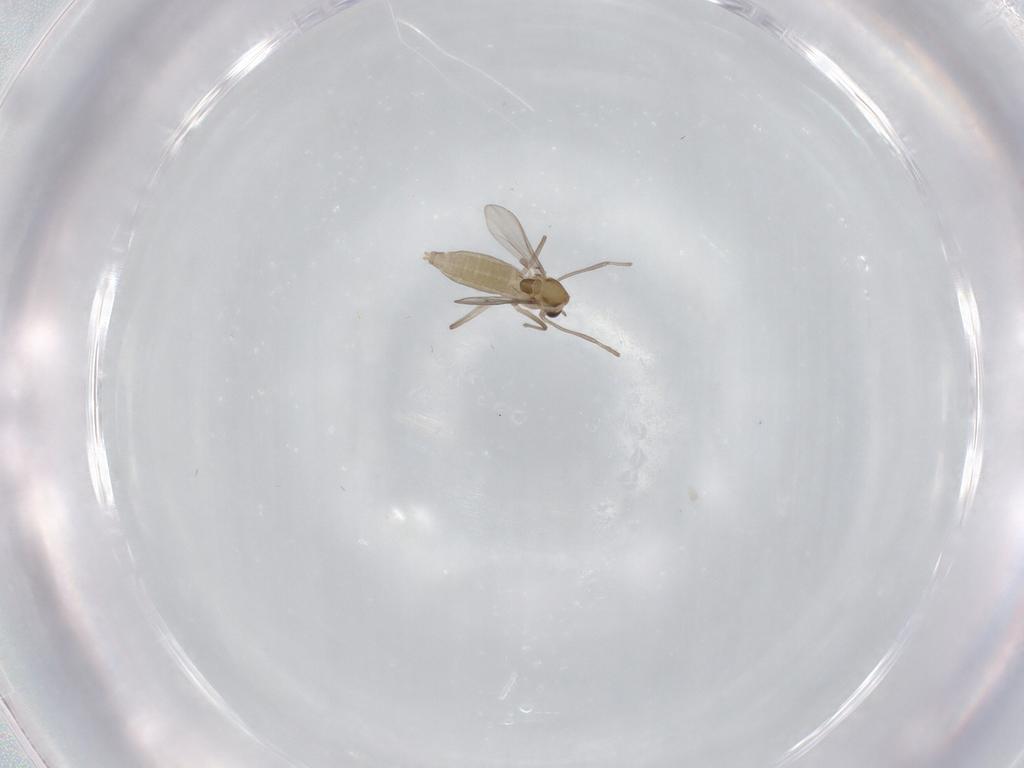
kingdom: Animalia
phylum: Arthropoda
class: Insecta
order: Diptera
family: Chironomidae
